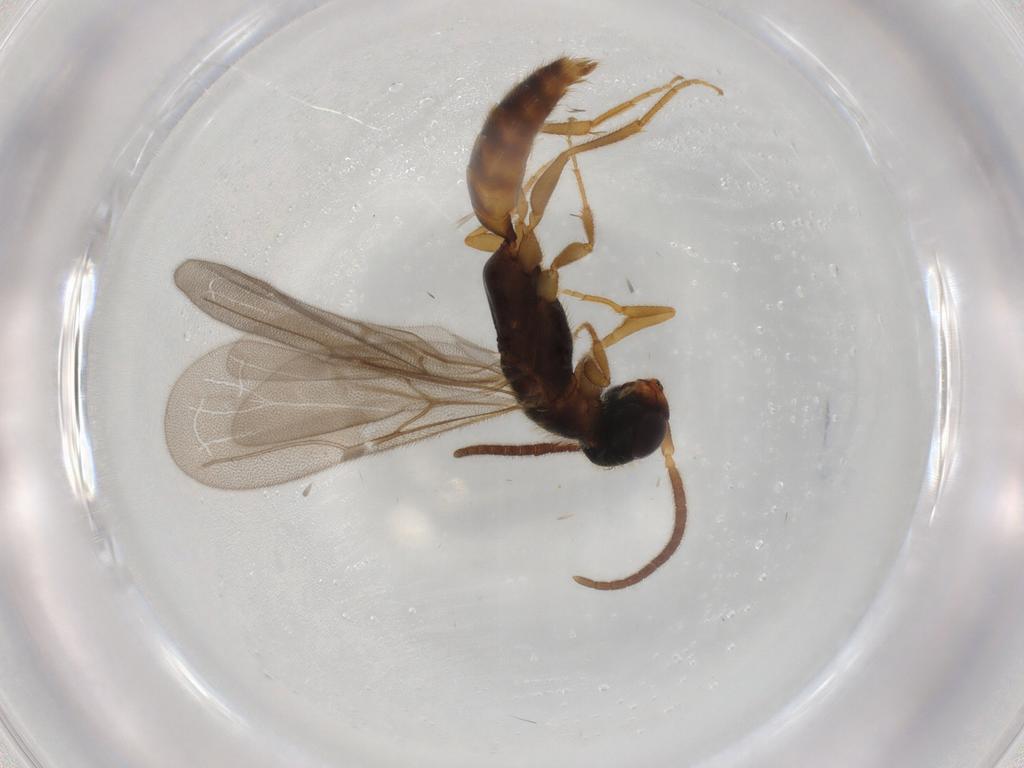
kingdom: Animalia
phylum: Arthropoda
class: Insecta
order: Hymenoptera
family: Bethylidae
